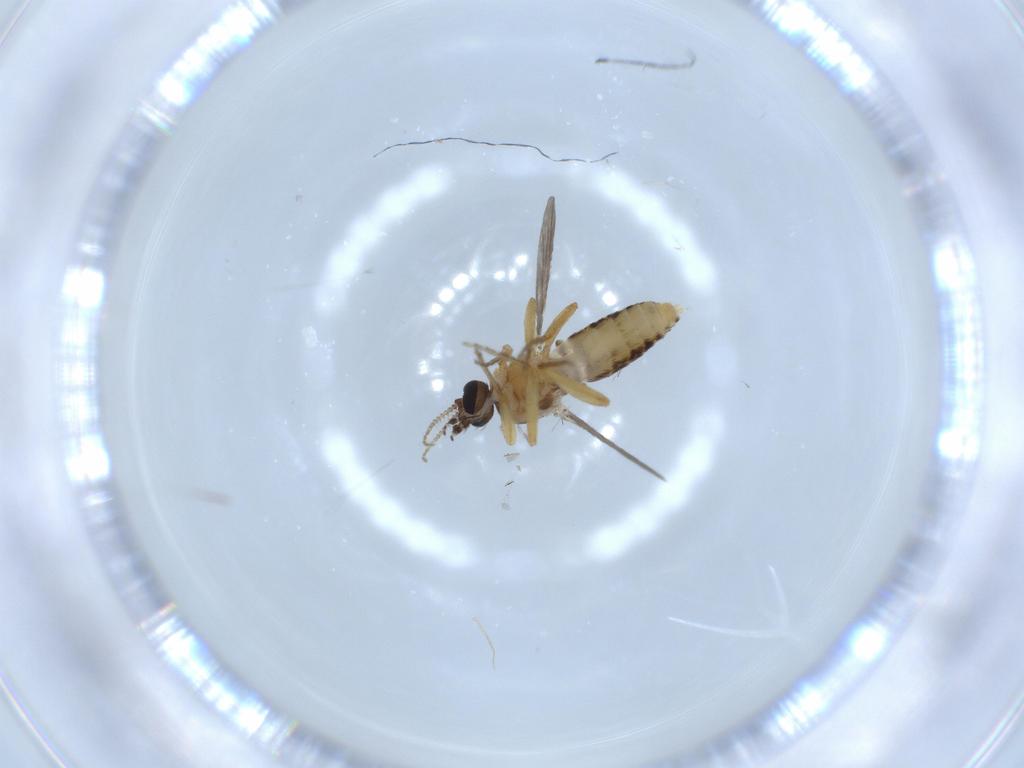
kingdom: Animalia
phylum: Arthropoda
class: Insecta
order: Diptera
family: Ceratopogonidae
